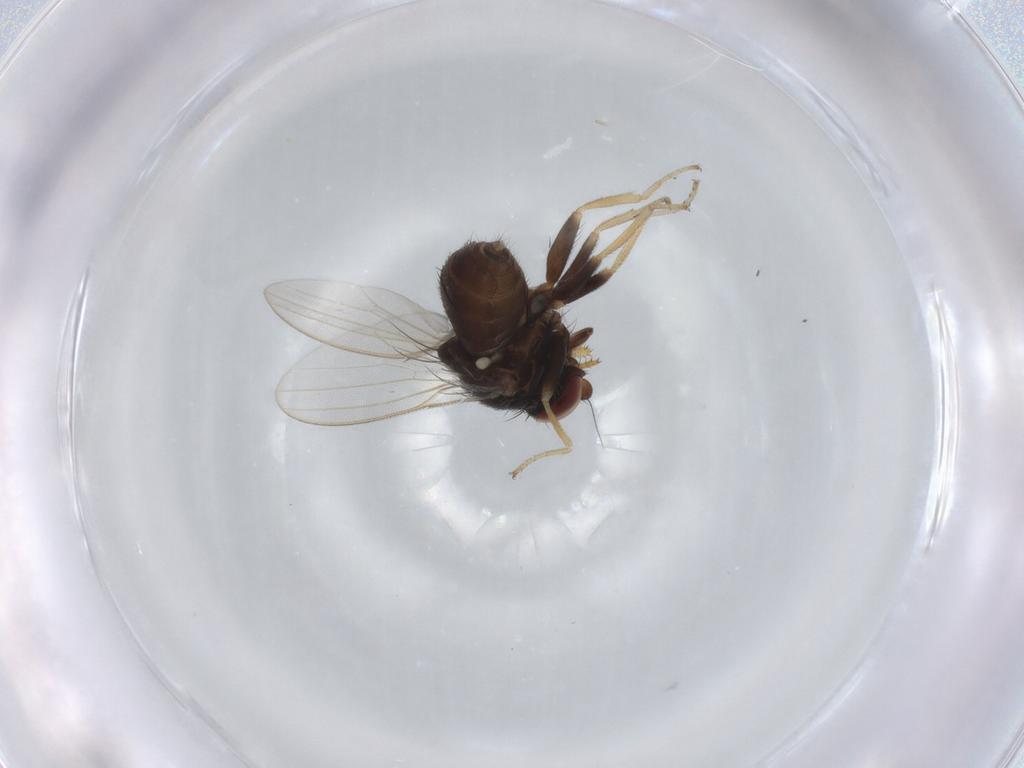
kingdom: Animalia
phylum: Arthropoda
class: Insecta
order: Diptera
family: Milichiidae
